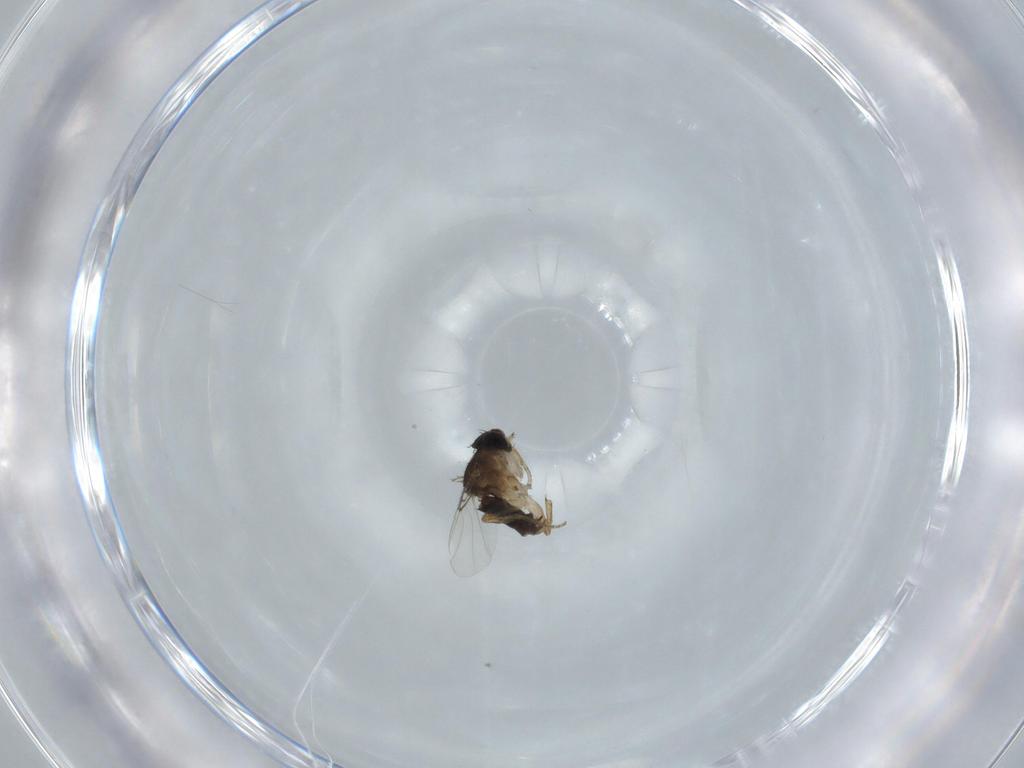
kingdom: Animalia
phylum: Arthropoda
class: Insecta
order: Diptera
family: Phoridae
